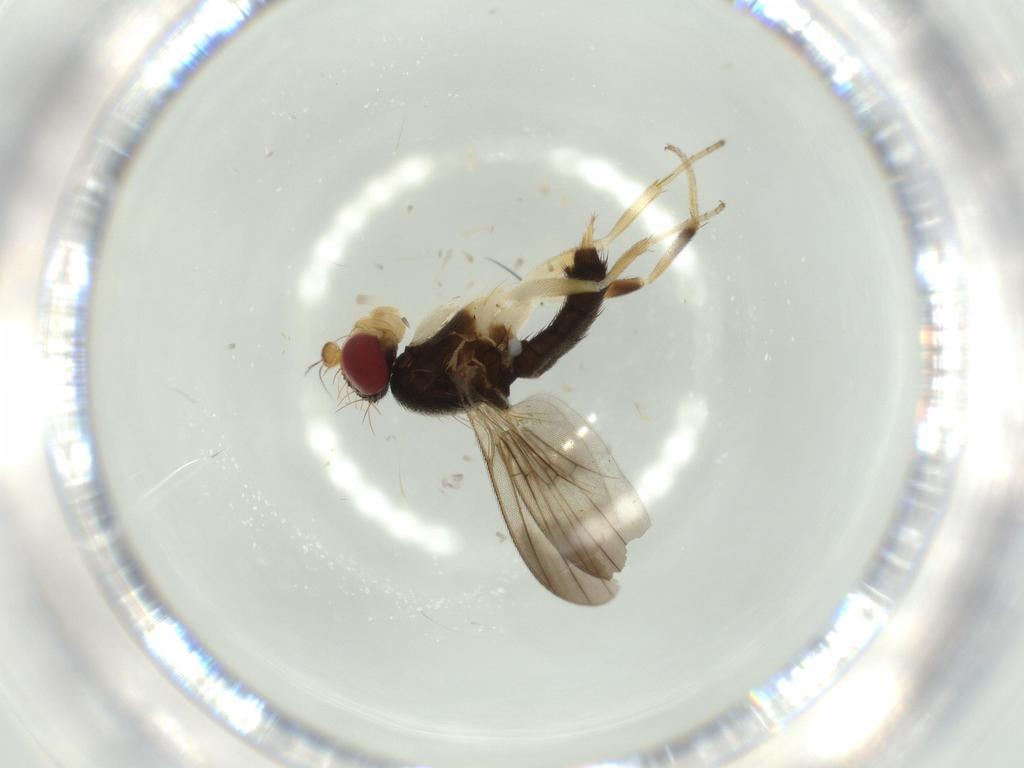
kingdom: Animalia
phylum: Arthropoda
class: Insecta
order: Diptera
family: Clusiidae
